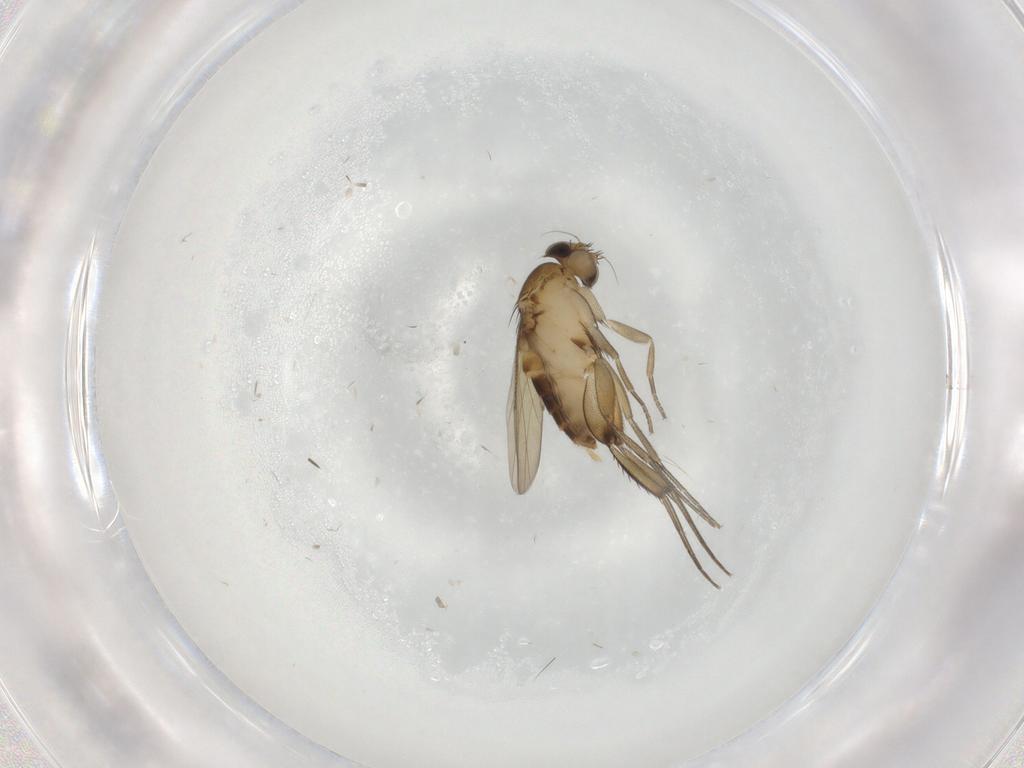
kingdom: Animalia
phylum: Arthropoda
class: Insecta
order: Diptera
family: Phoridae
